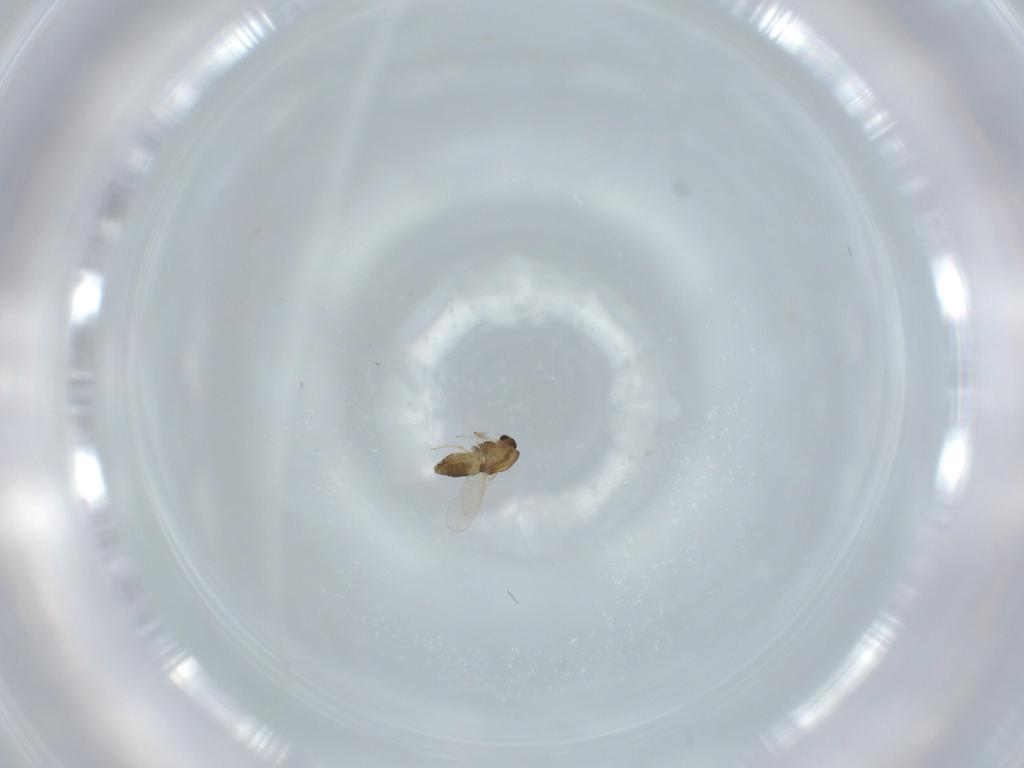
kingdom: Animalia
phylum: Arthropoda
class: Insecta
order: Diptera
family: Chironomidae
